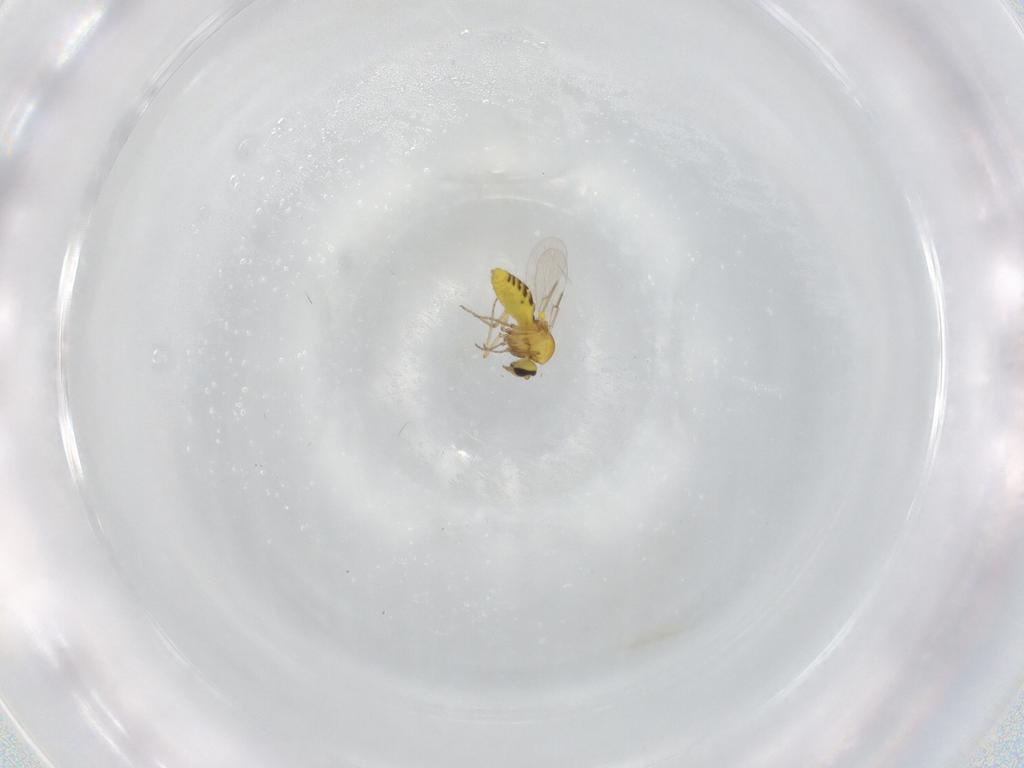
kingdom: Animalia
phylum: Arthropoda
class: Insecta
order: Diptera
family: Ceratopogonidae
